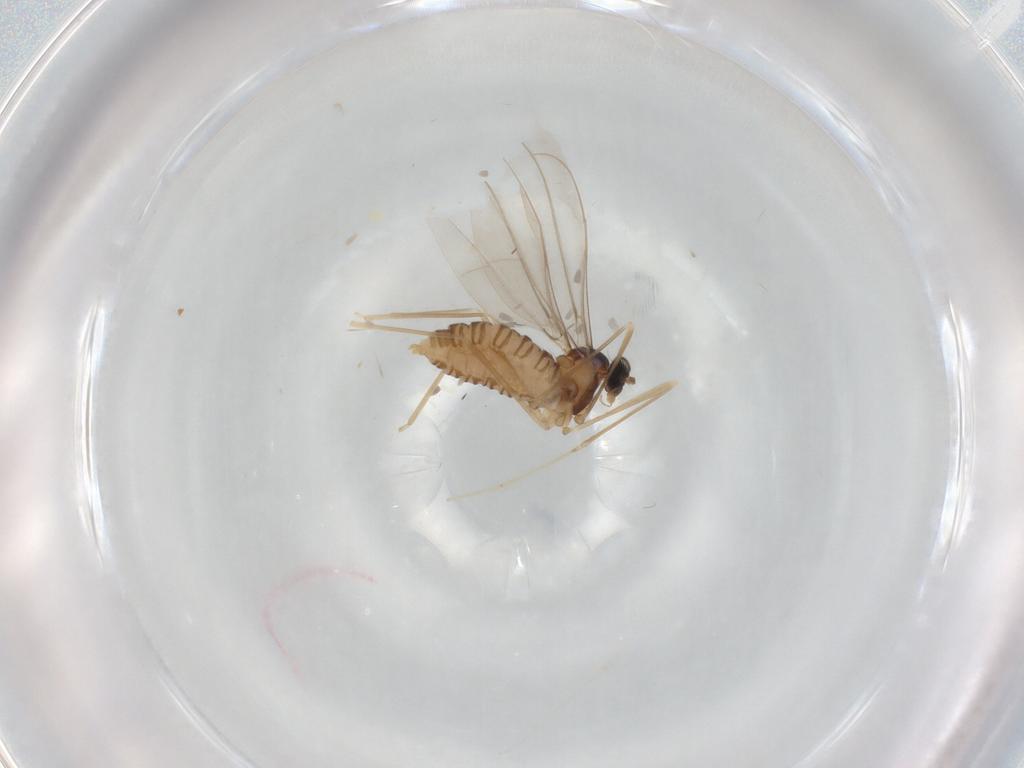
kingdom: Animalia
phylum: Arthropoda
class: Insecta
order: Diptera
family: Cecidomyiidae
